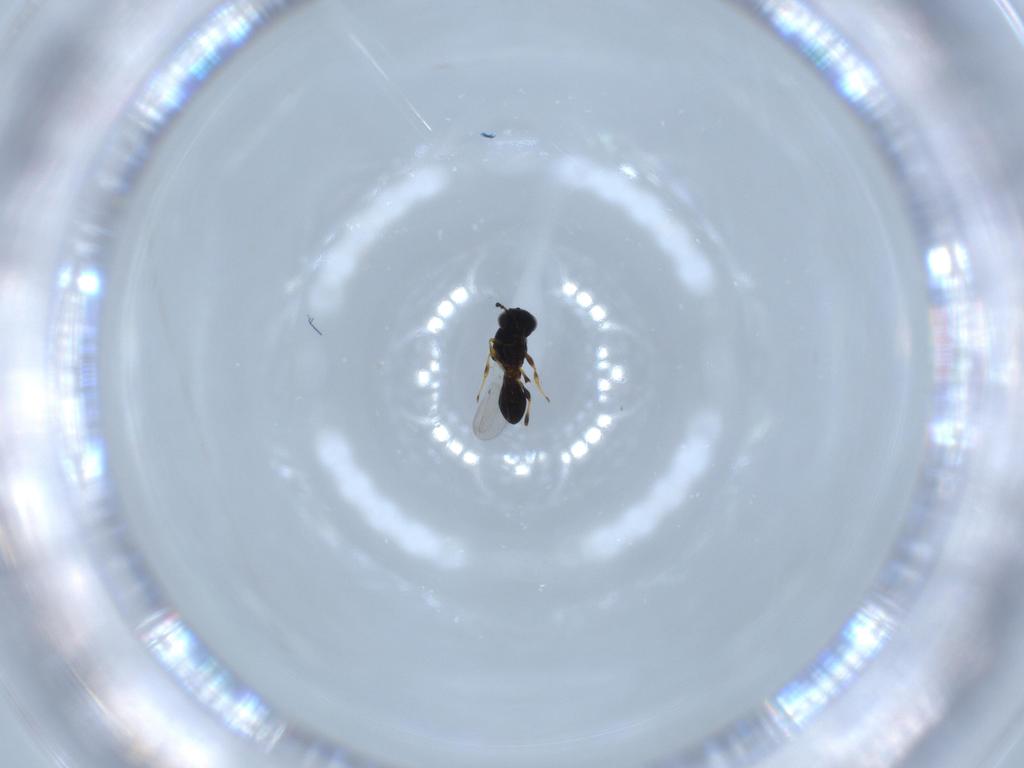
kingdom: Animalia
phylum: Arthropoda
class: Insecta
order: Hymenoptera
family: Platygastridae
